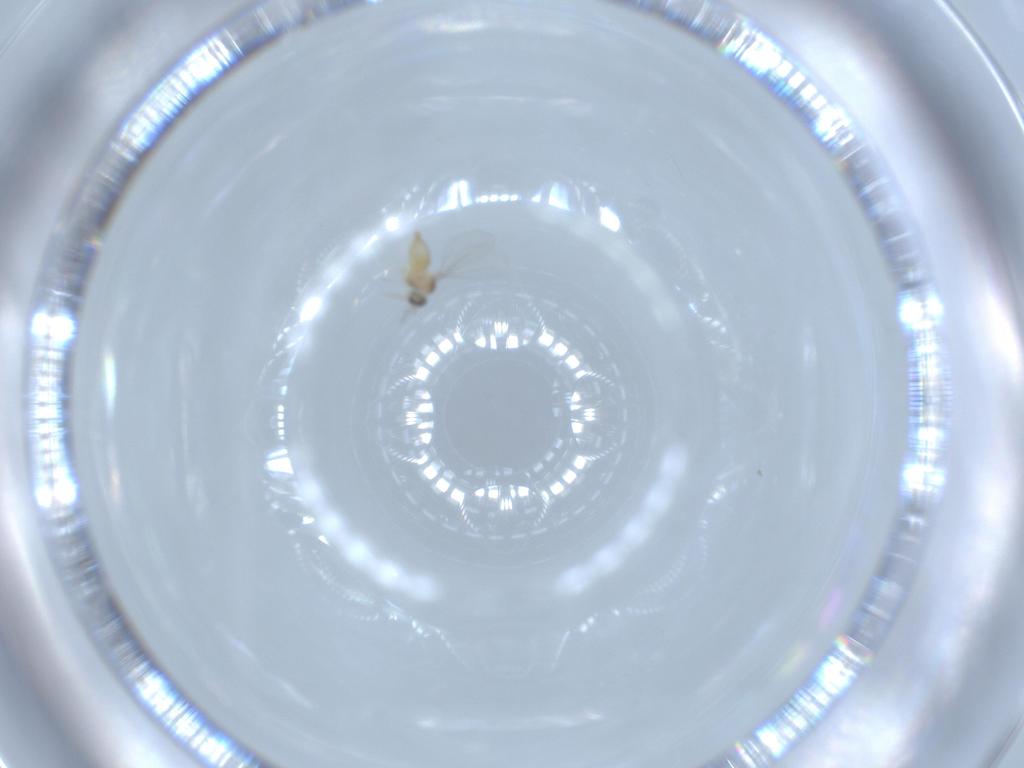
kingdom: Animalia
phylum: Arthropoda
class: Insecta
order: Diptera
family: Cecidomyiidae
